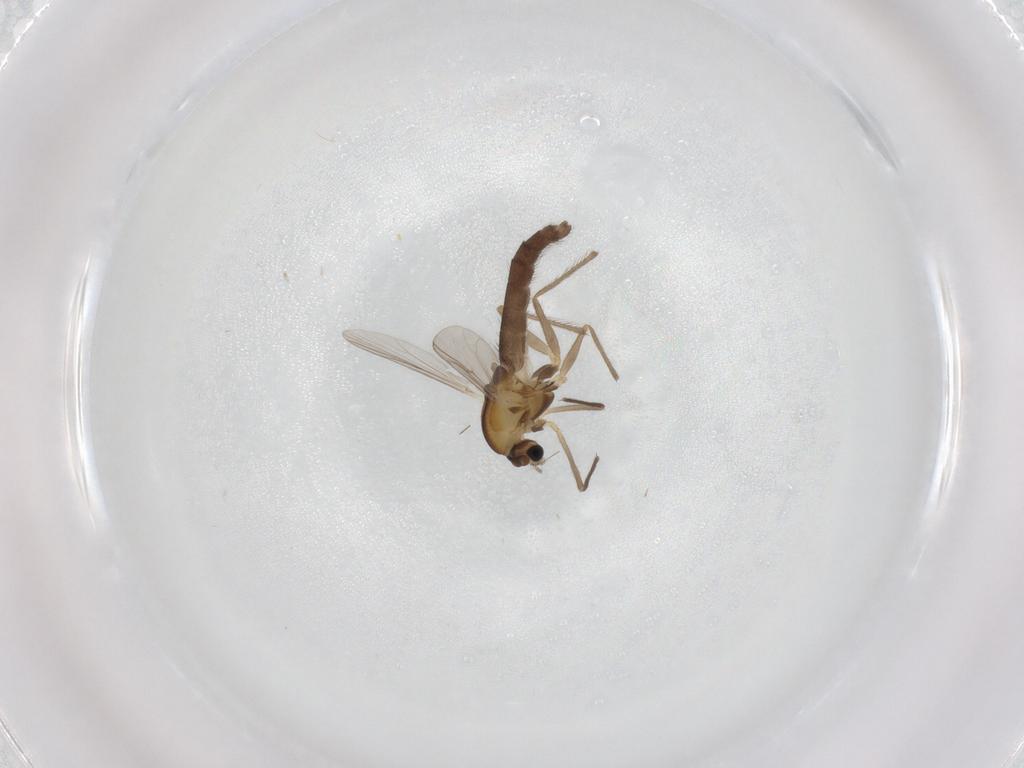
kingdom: Animalia
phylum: Arthropoda
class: Insecta
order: Diptera
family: Chironomidae
